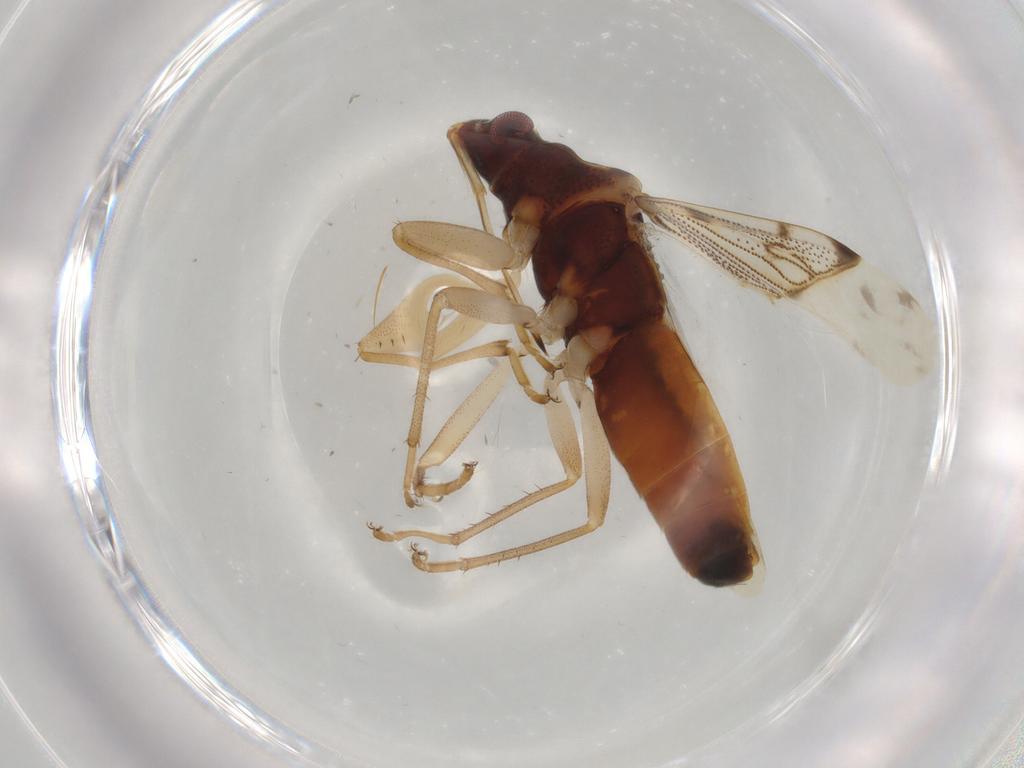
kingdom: Animalia
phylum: Arthropoda
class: Insecta
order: Hemiptera
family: Rhyparochromidae
